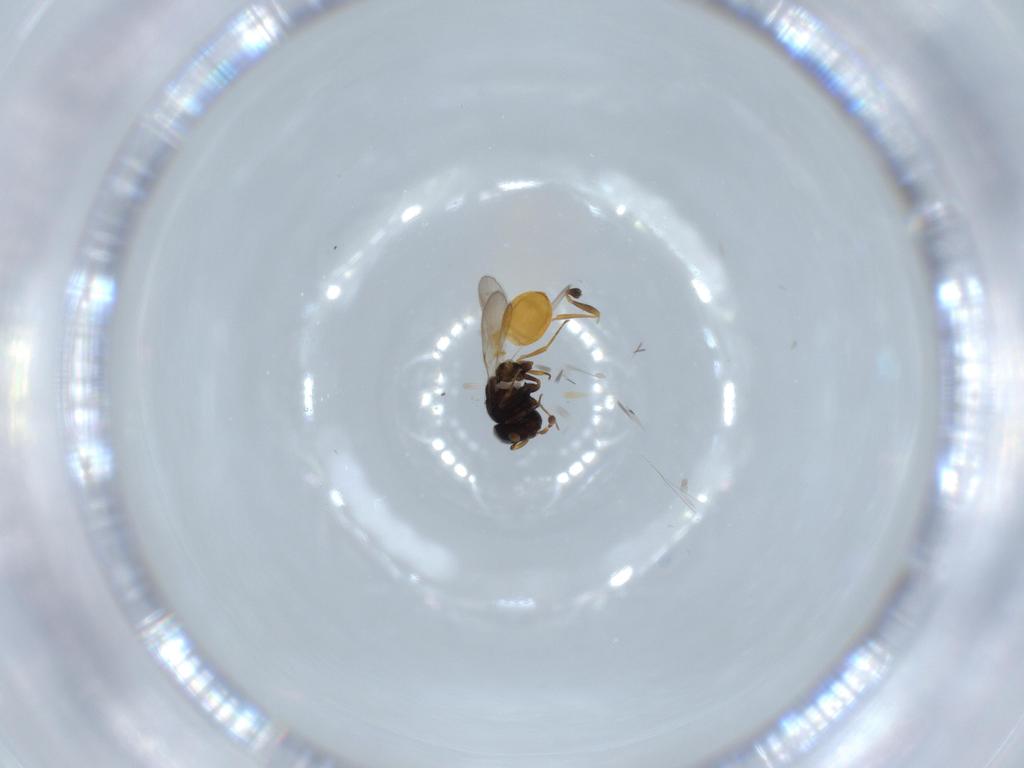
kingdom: Animalia
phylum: Arthropoda
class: Insecta
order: Hymenoptera
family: Scelionidae
